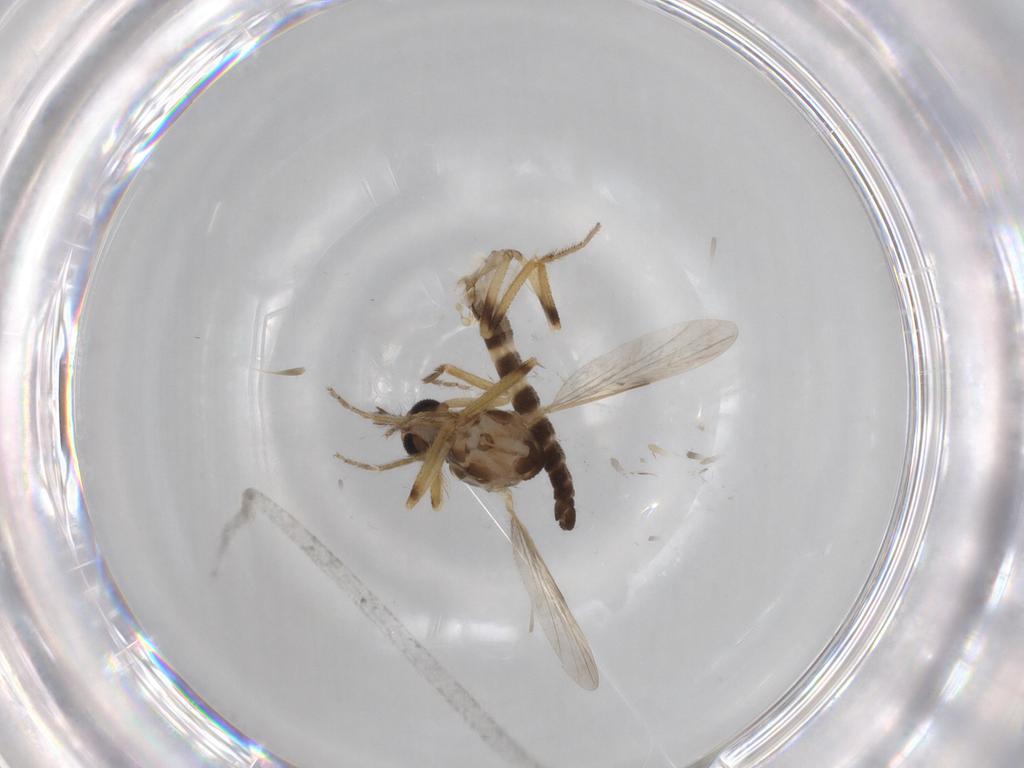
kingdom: Animalia
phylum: Arthropoda
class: Insecta
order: Diptera
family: Ceratopogonidae
